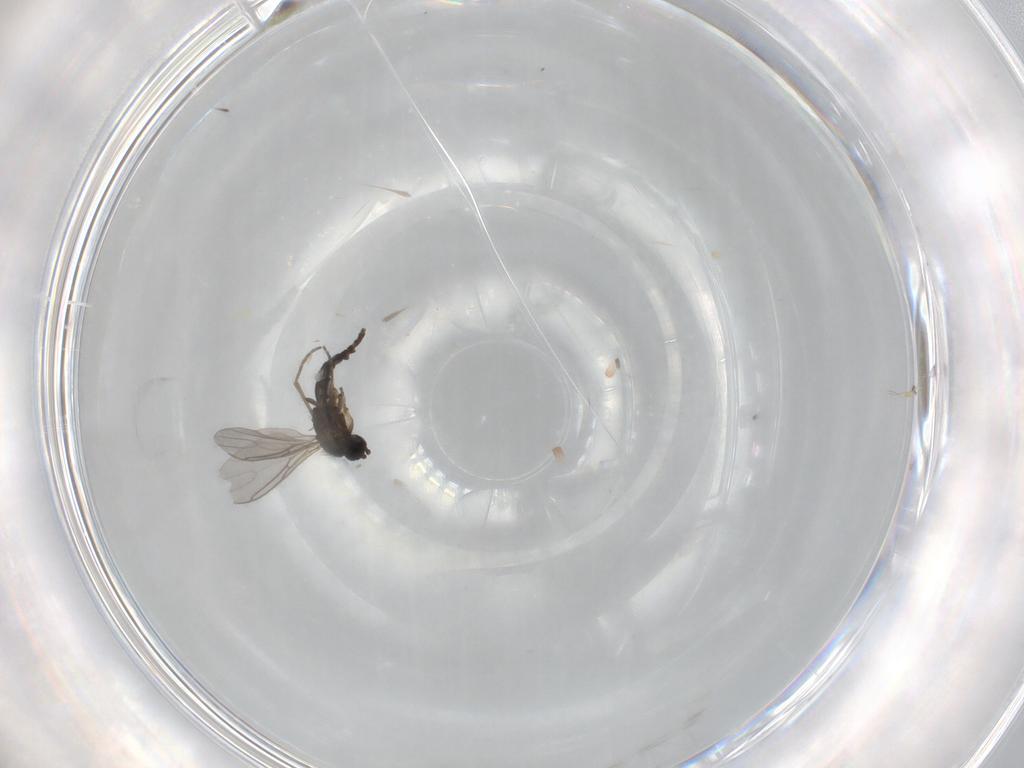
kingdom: Animalia
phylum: Arthropoda
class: Insecta
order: Diptera
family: Sciaridae
